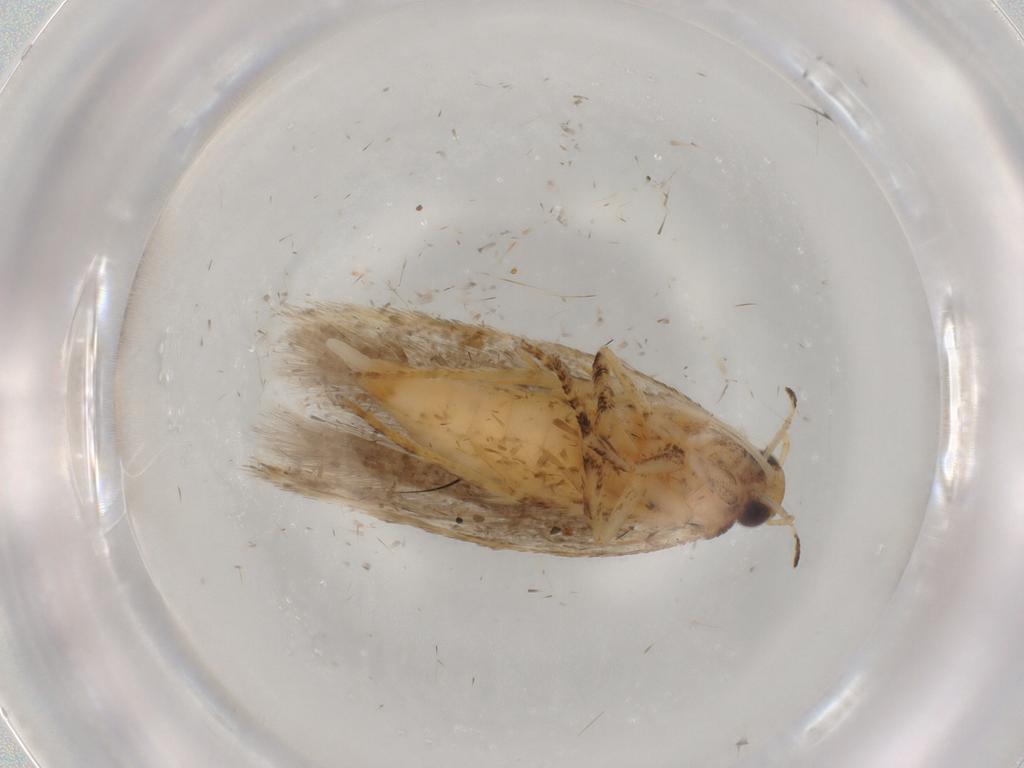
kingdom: Animalia
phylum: Arthropoda
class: Insecta
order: Lepidoptera
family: Gelechiidae
